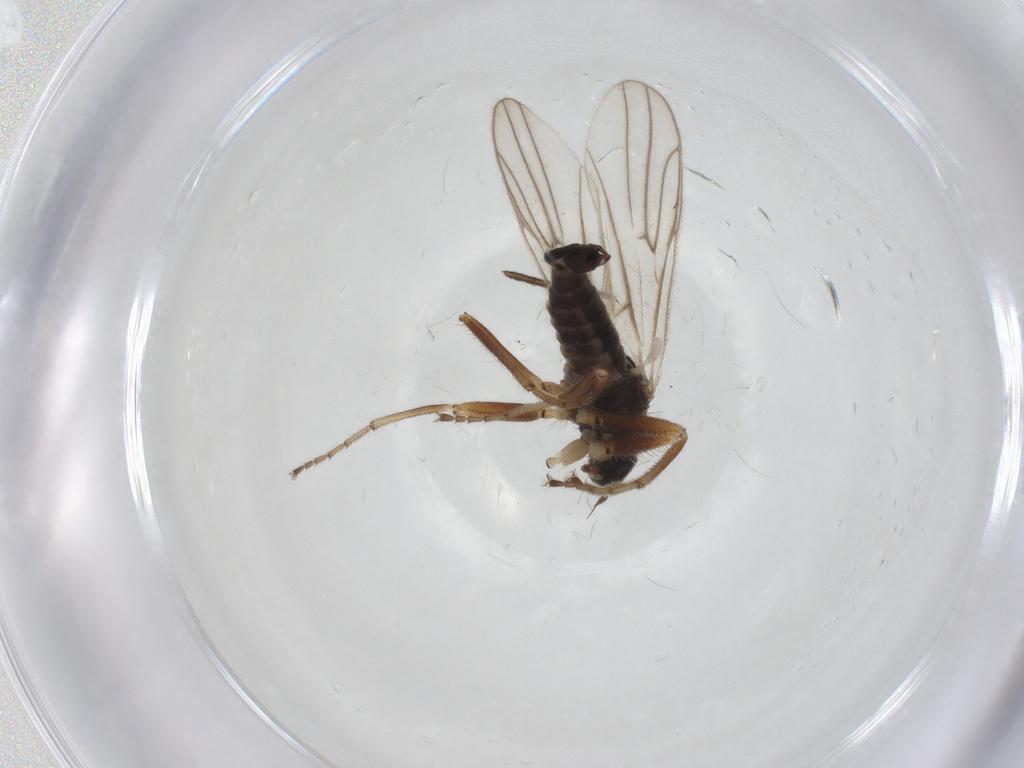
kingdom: Animalia
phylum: Arthropoda
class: Insecta
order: Diptera
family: Hybotidae
